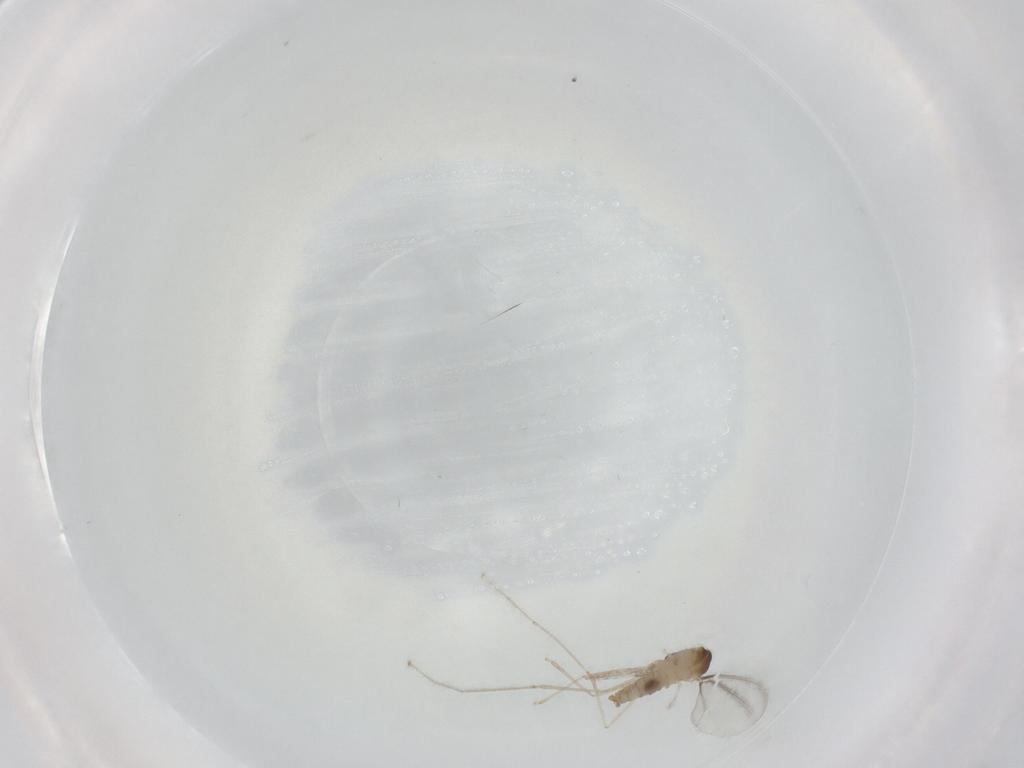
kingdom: Animalia
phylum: Arthropoda
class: Insecta
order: Diptera
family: Cecidomyiidae
